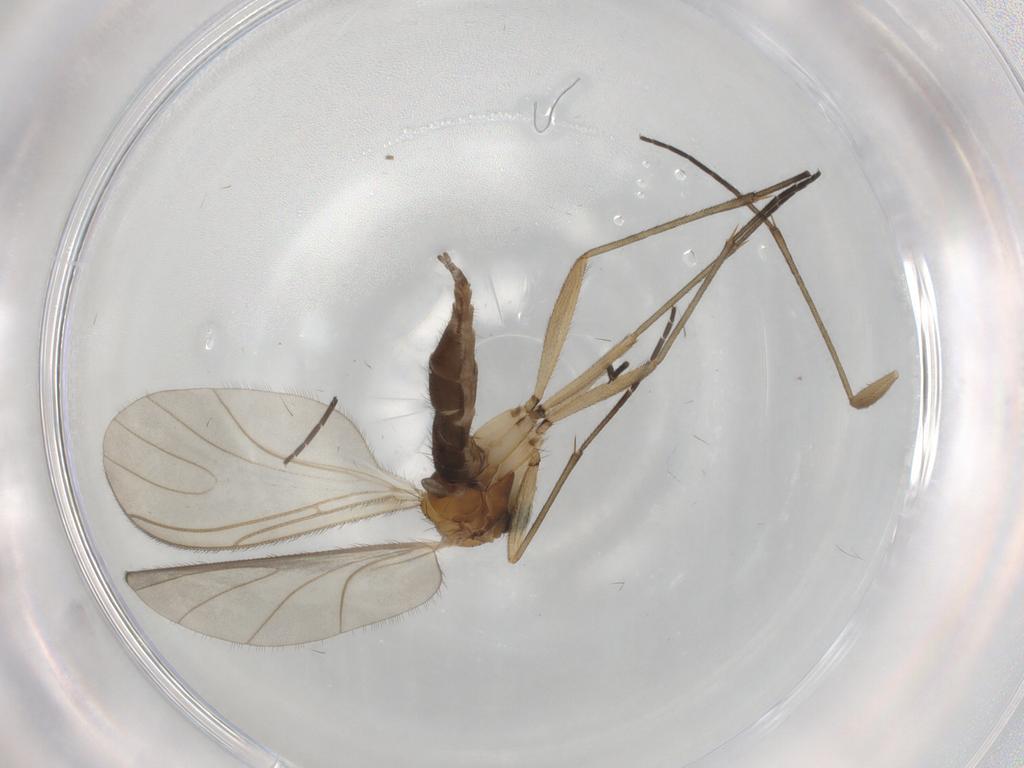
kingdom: Animalia
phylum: Arthropoda
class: Insecta
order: Diptera
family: Sciaridae
